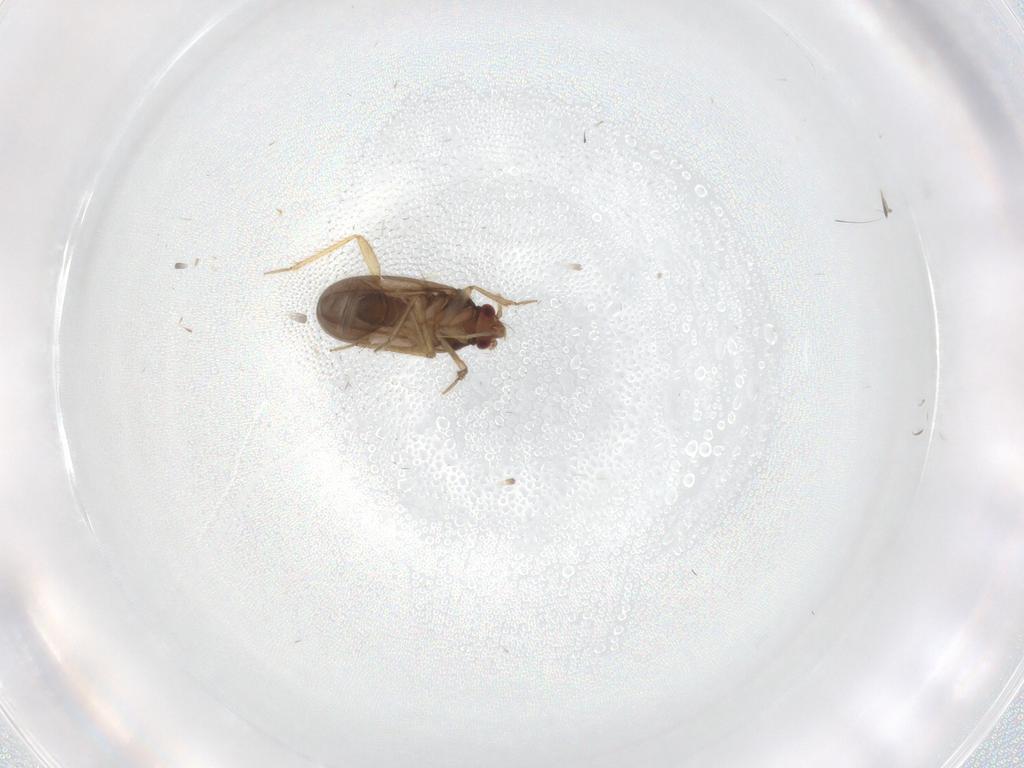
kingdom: Animalia
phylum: Arthropoda
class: Insecta
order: Hemiptera
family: Ceratocombidae
